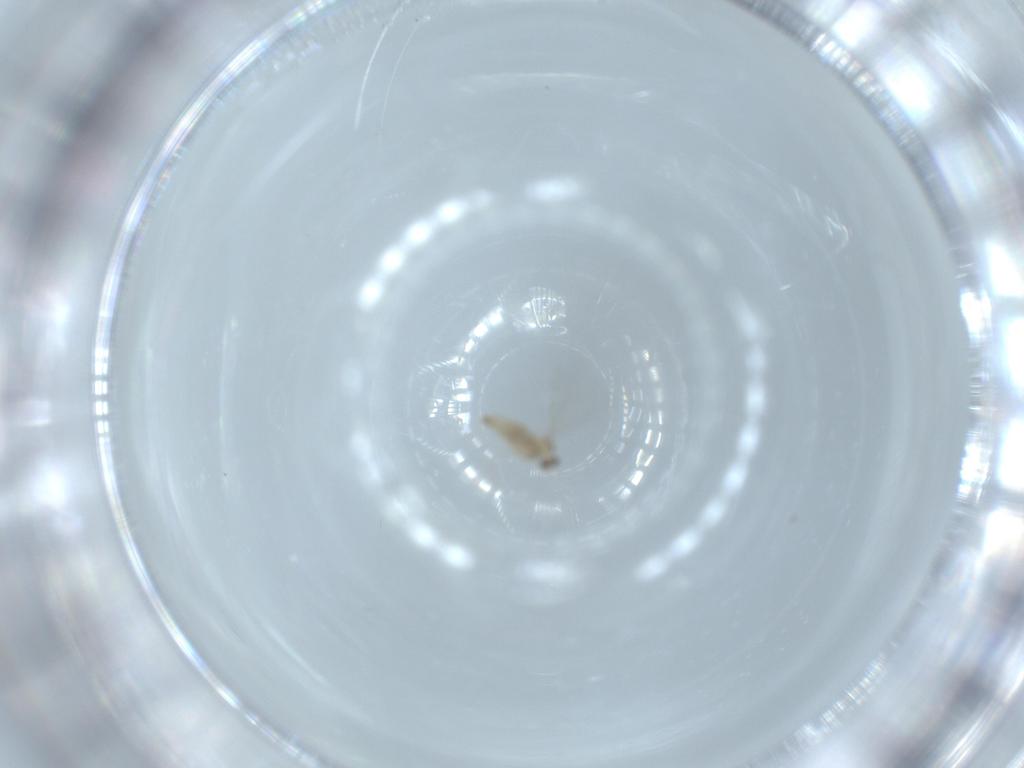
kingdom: Animalia
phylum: Arthropoda
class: Insecta
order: Diptera
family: Cecidomyiidae
